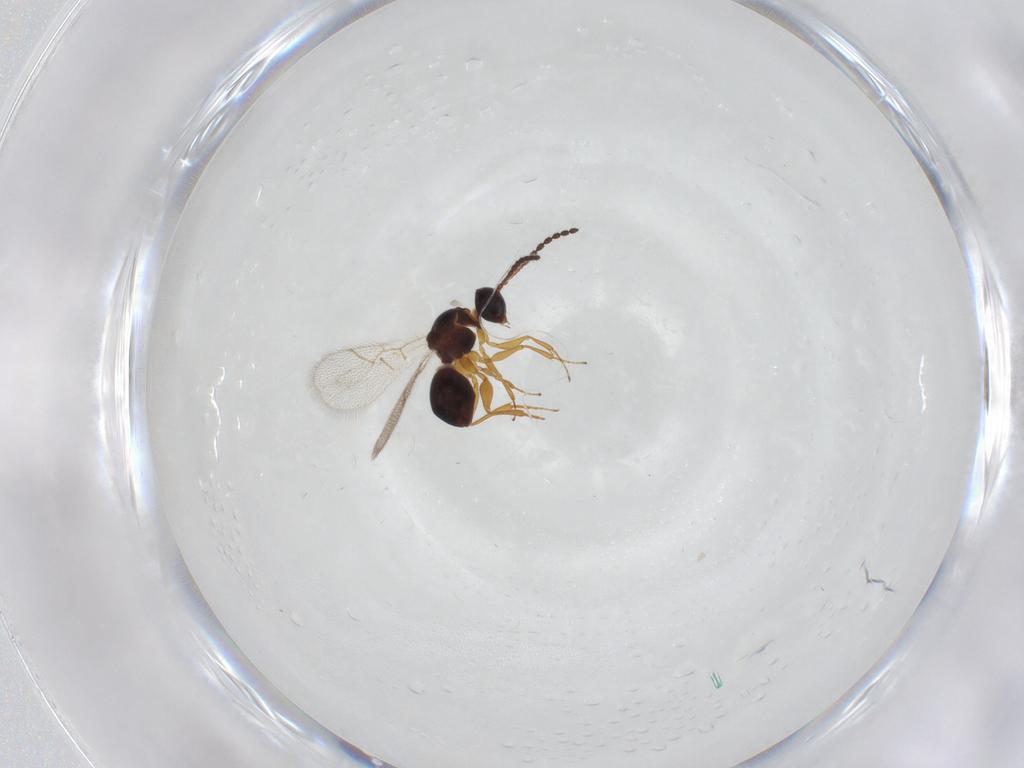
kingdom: Animalia
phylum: Arthropoda
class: Insecta
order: Hymenoptera
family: Figitidae
